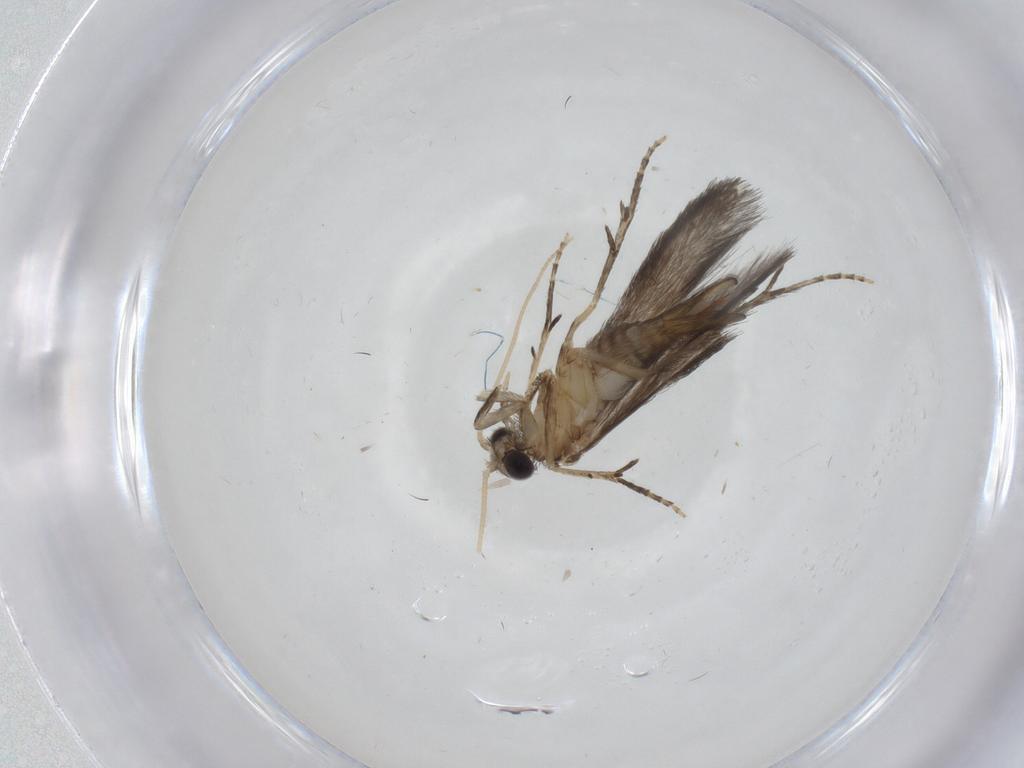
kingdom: Animalia
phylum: Arthropoda
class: Insecta
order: Trichoptera
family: Hydroptilidae
